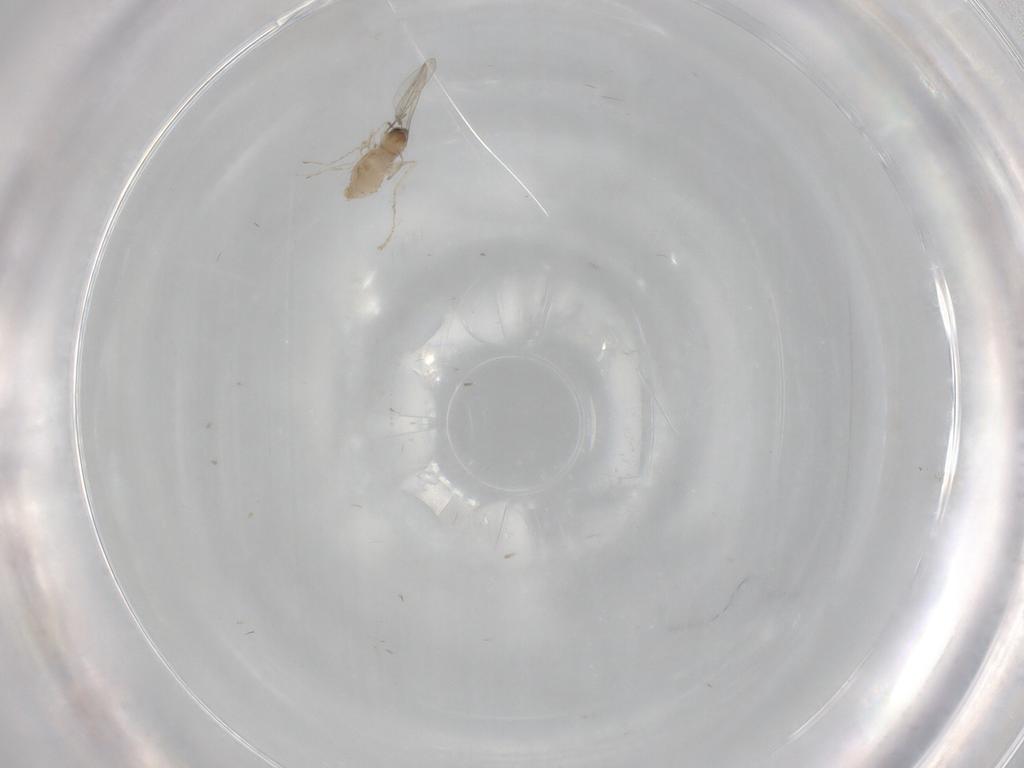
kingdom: Animalia
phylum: Arthropoda
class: Insecta
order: Diptera
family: Chironomidae
